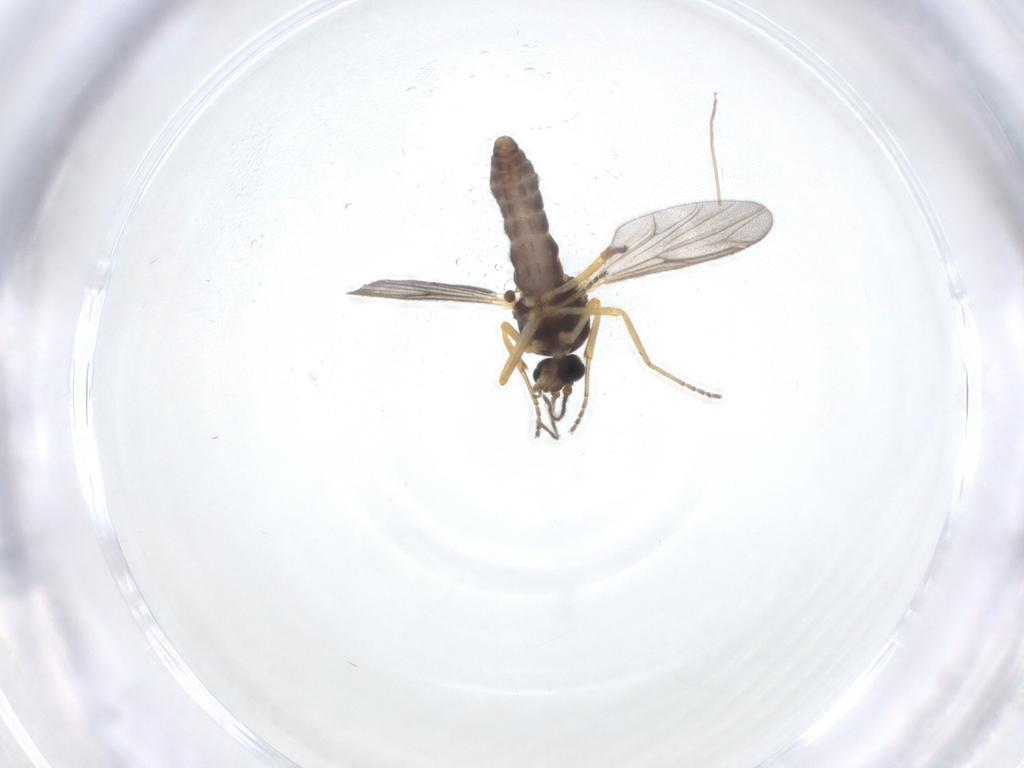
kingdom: Animalia
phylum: Arthropoda
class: Insecta
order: Diptera
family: Ceratopogonidae
